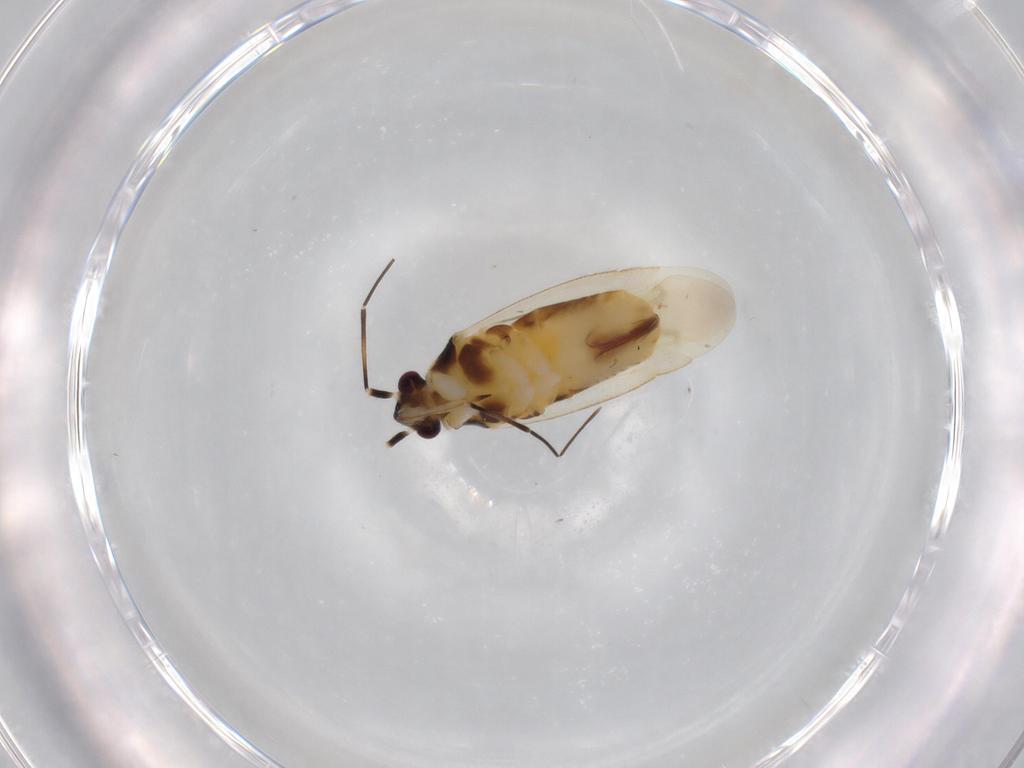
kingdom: Animalia
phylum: Arthropoda
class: Insecta
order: Hemiptera
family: Miridae
